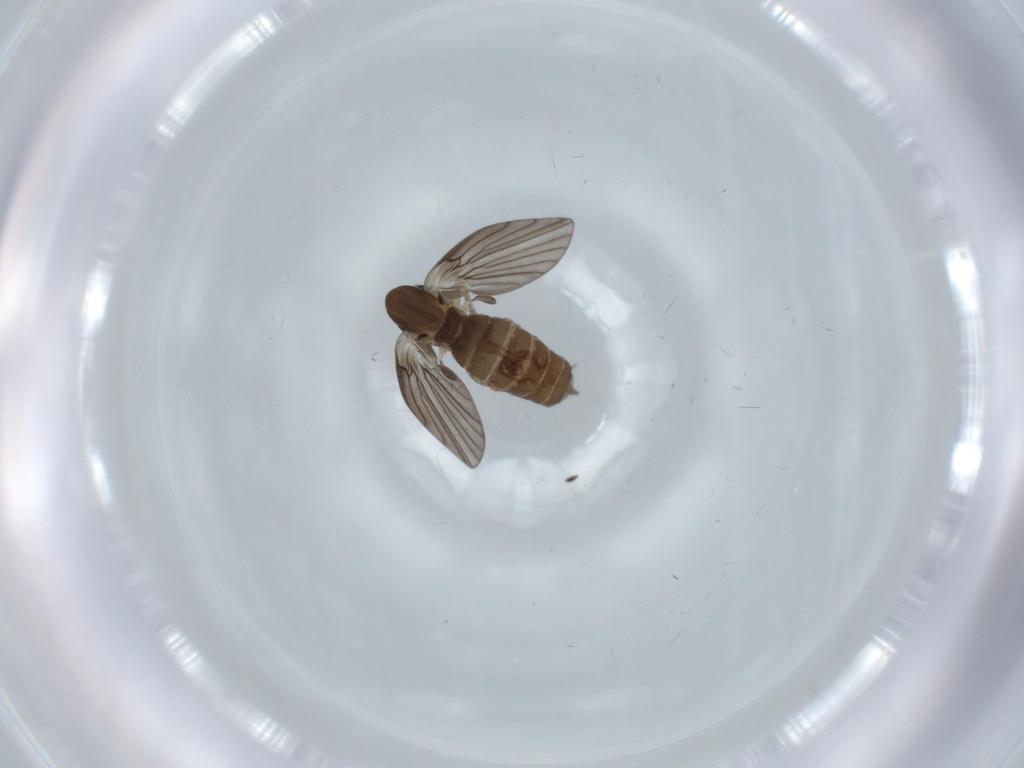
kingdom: Animalia
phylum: Arthropoda
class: Insecta
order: Diptera
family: Psychodidae
